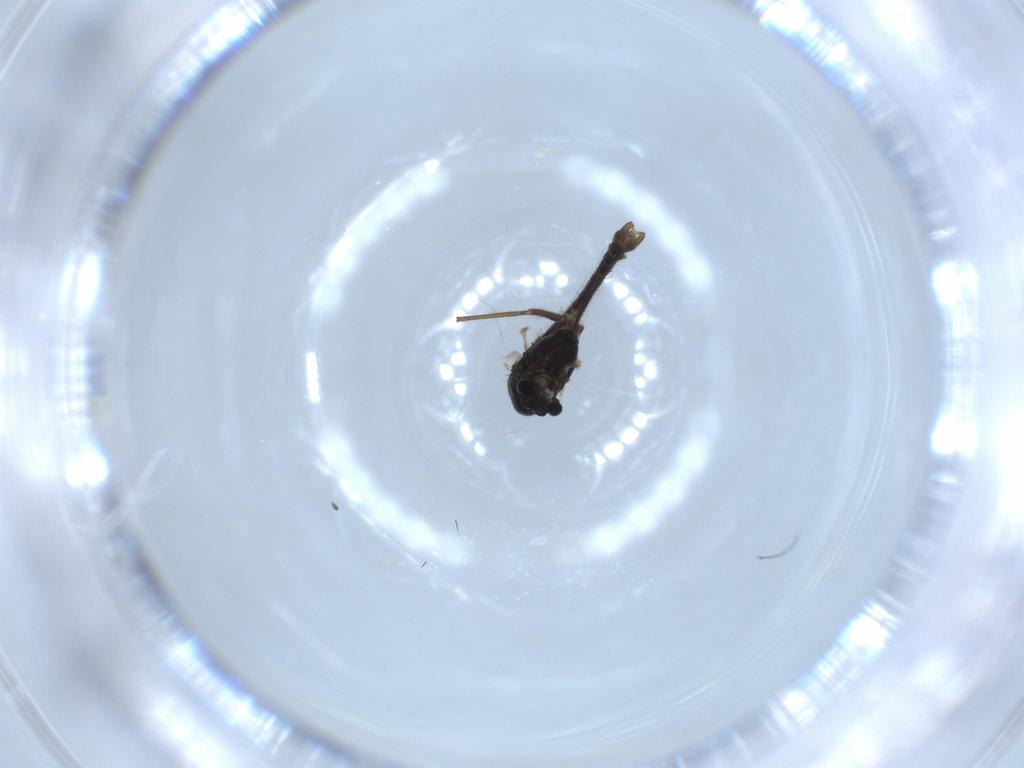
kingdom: Animalia
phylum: Arthropoda
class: Insecta
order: Diptera
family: Chironomidae
